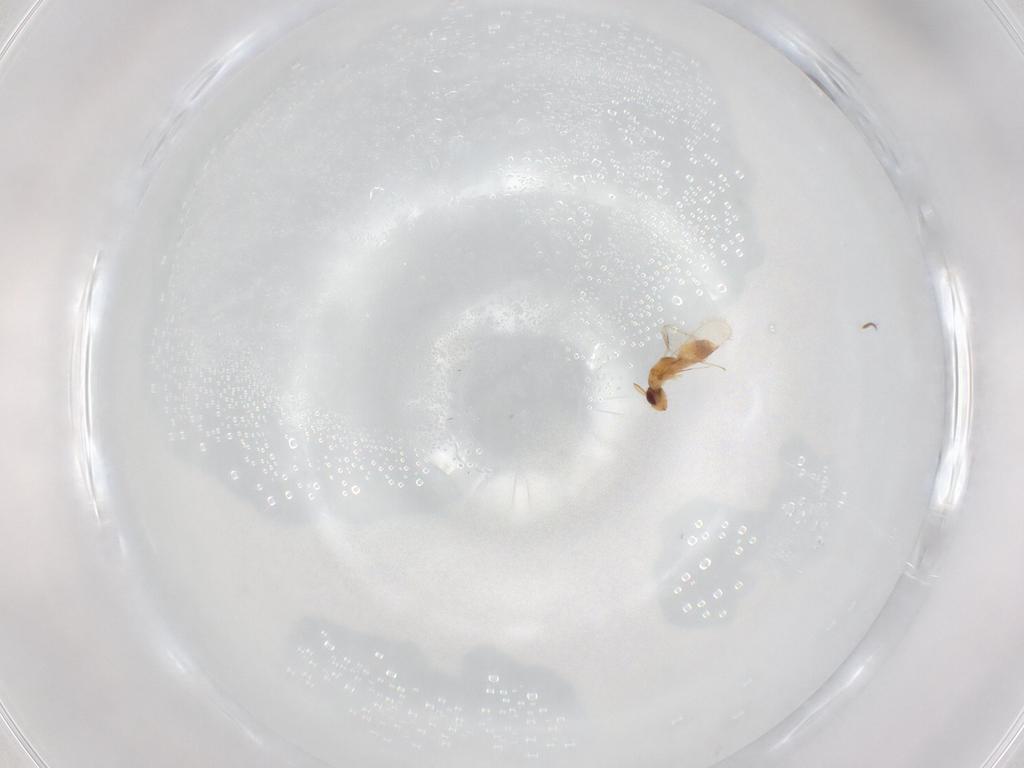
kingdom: Animalia
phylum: Arthropoda
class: Insecta
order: Hymenoptera
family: Mymaridae
